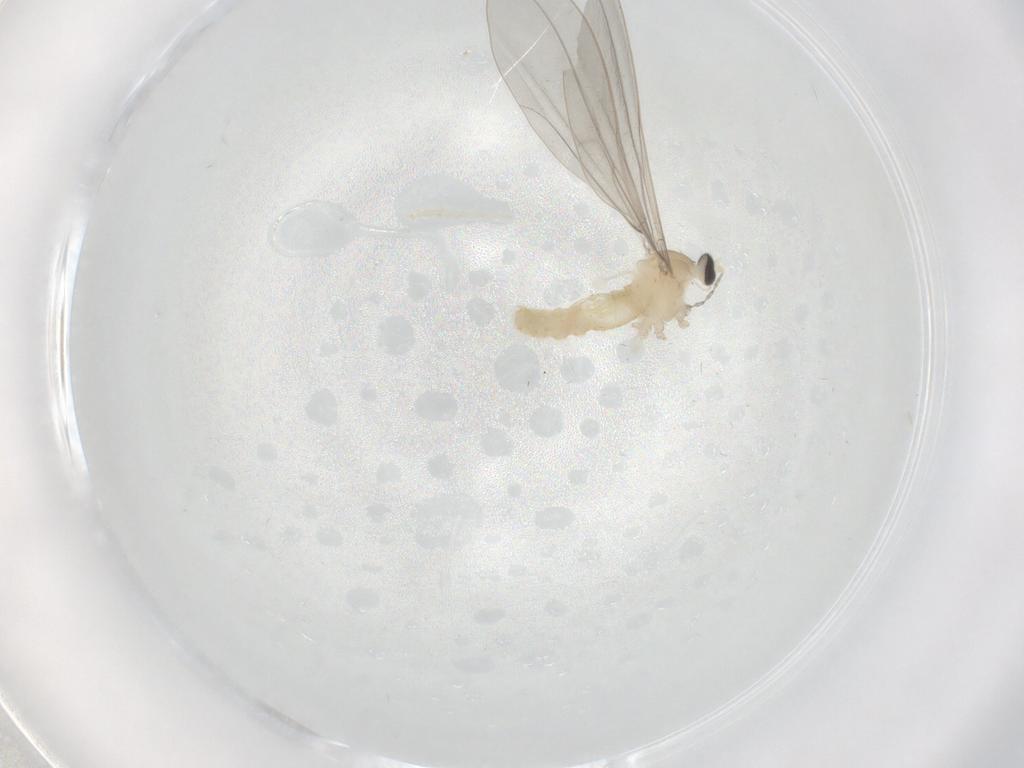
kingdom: Animalia
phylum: Arthropoda
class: Insecta
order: Diptera
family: Cecidomyiidae
